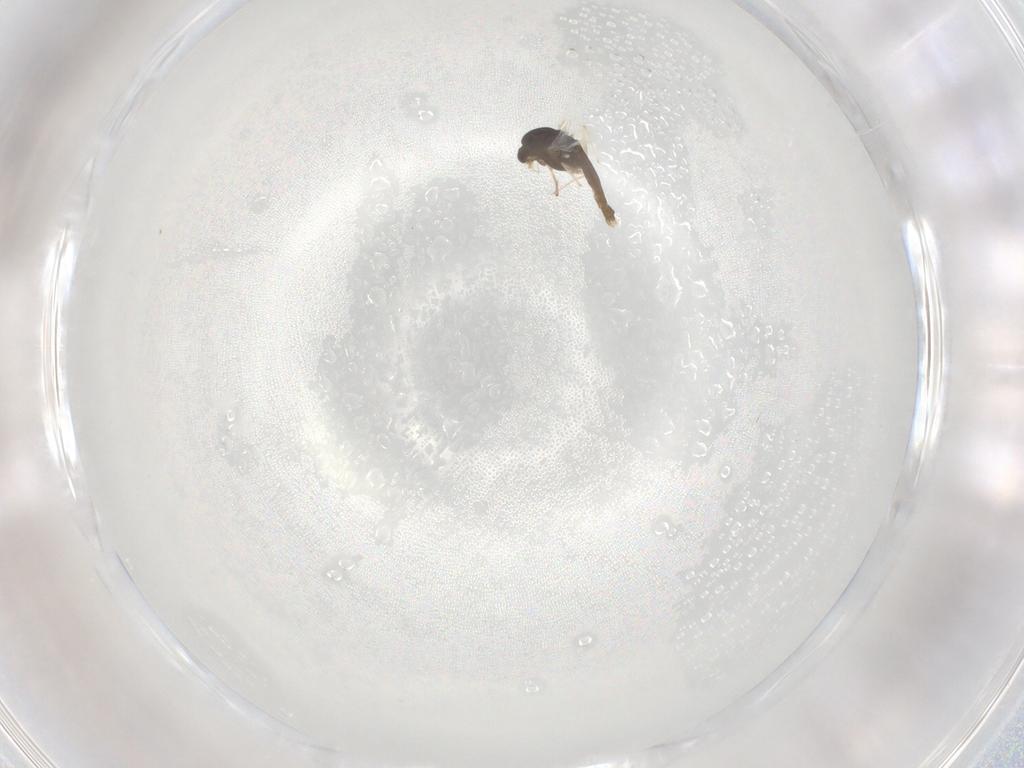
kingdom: Animalia
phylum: Arthropoda
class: Insecta
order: Diptera
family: Chironomidae
